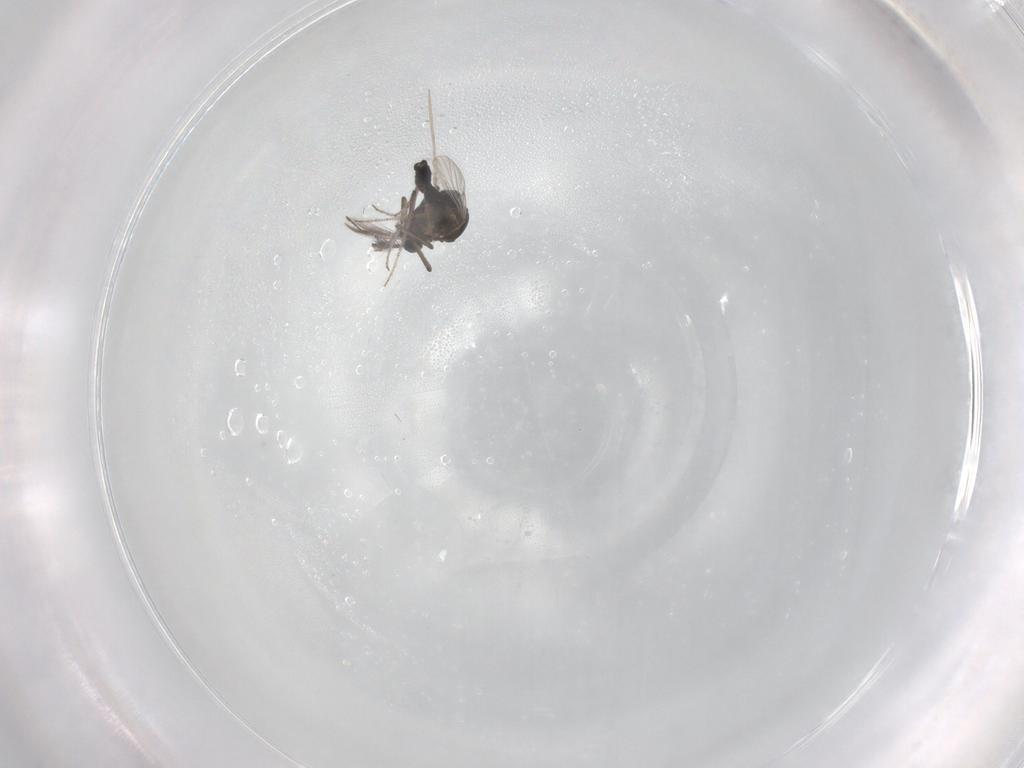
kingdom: Animalia
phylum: Arthropoda
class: Insecta
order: Diptera
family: Ceratopogonidae
